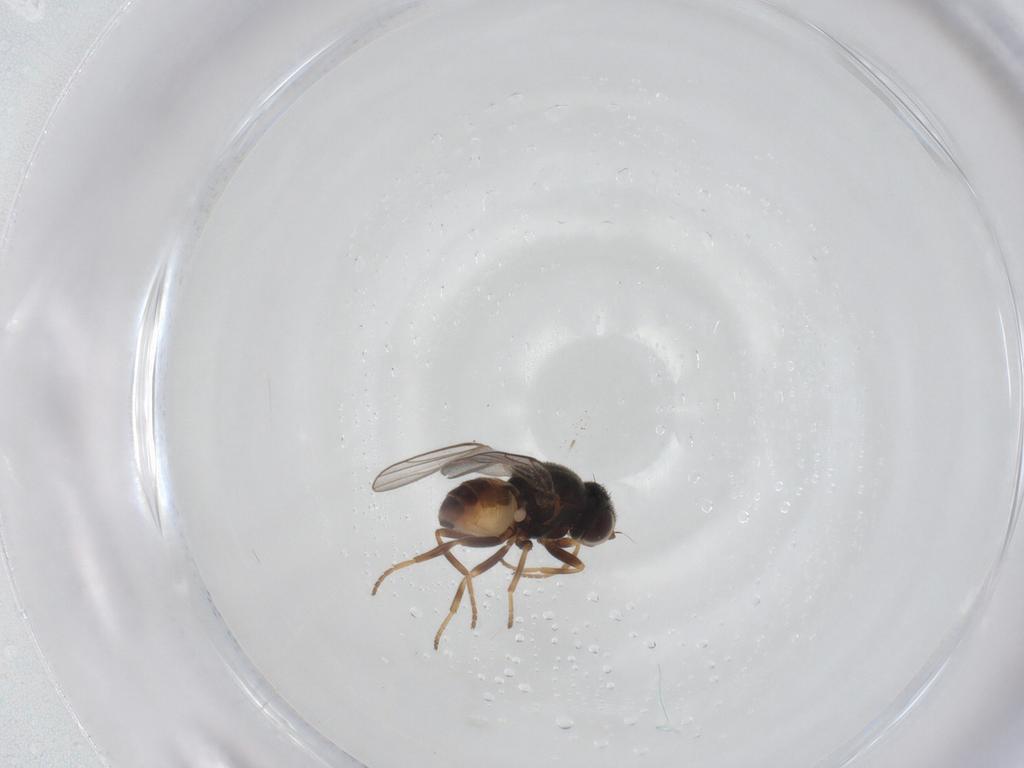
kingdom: Animalia
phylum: Arthropoda
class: Insecta
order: Diptera
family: Chloropidae
